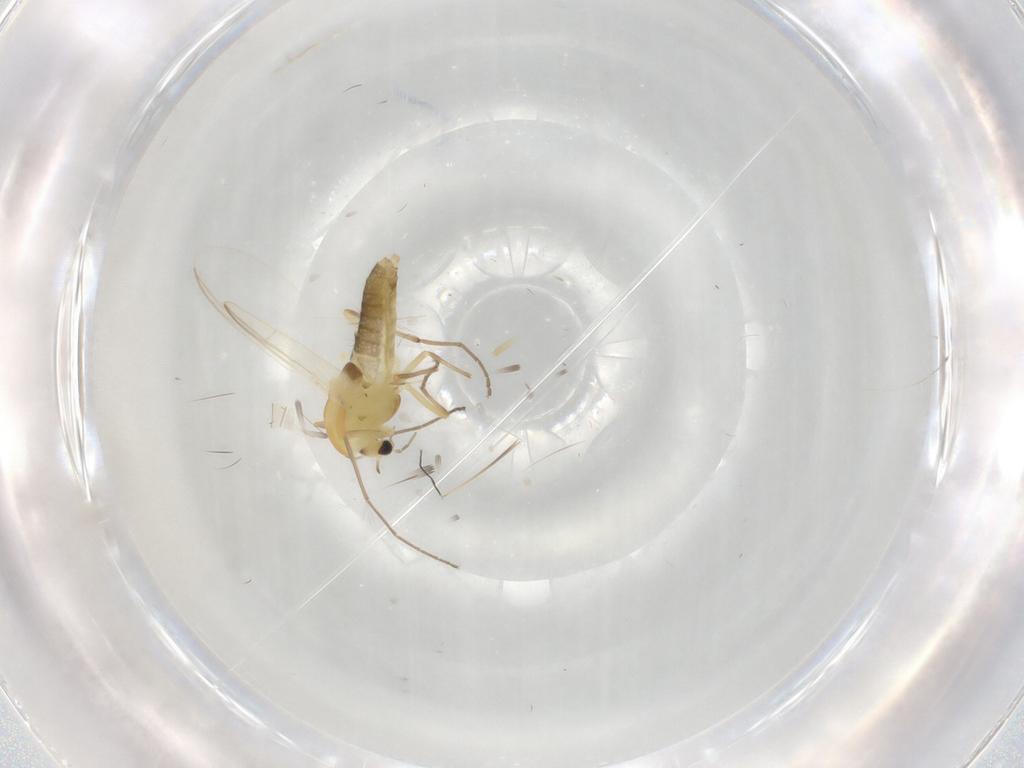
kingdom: Animalia
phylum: Arthropoda
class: Insecta
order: Diptera
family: Chironomidae
